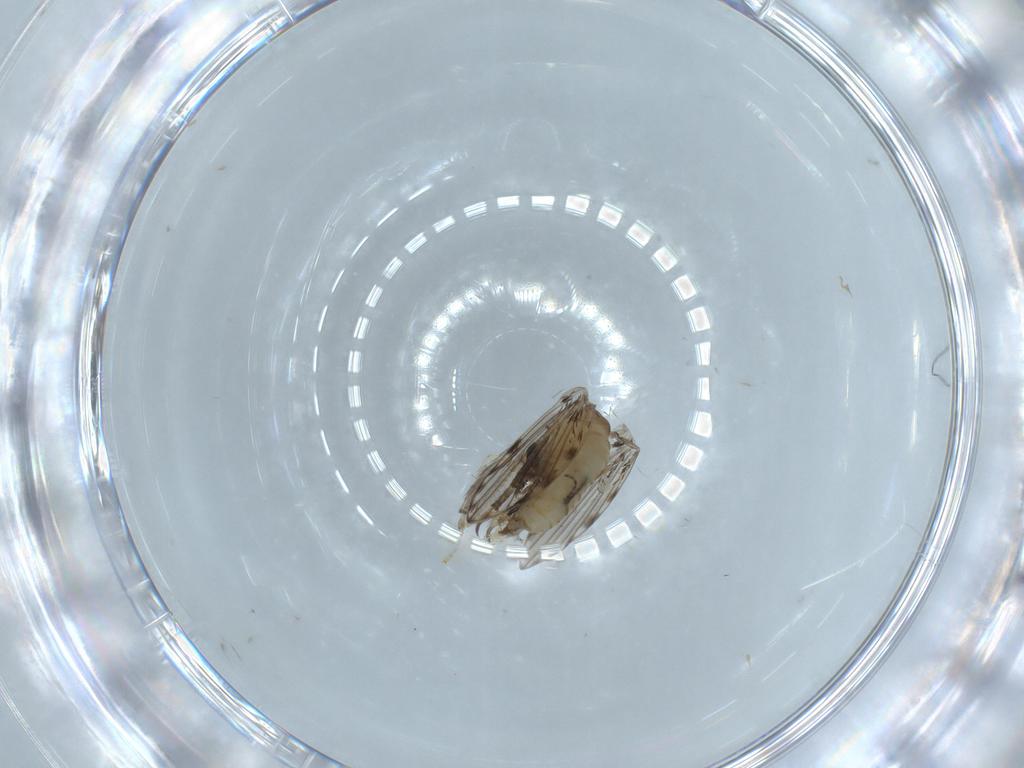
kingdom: Animalia
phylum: Arthropoda
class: Insecta
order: Diptera
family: Psychodidae
